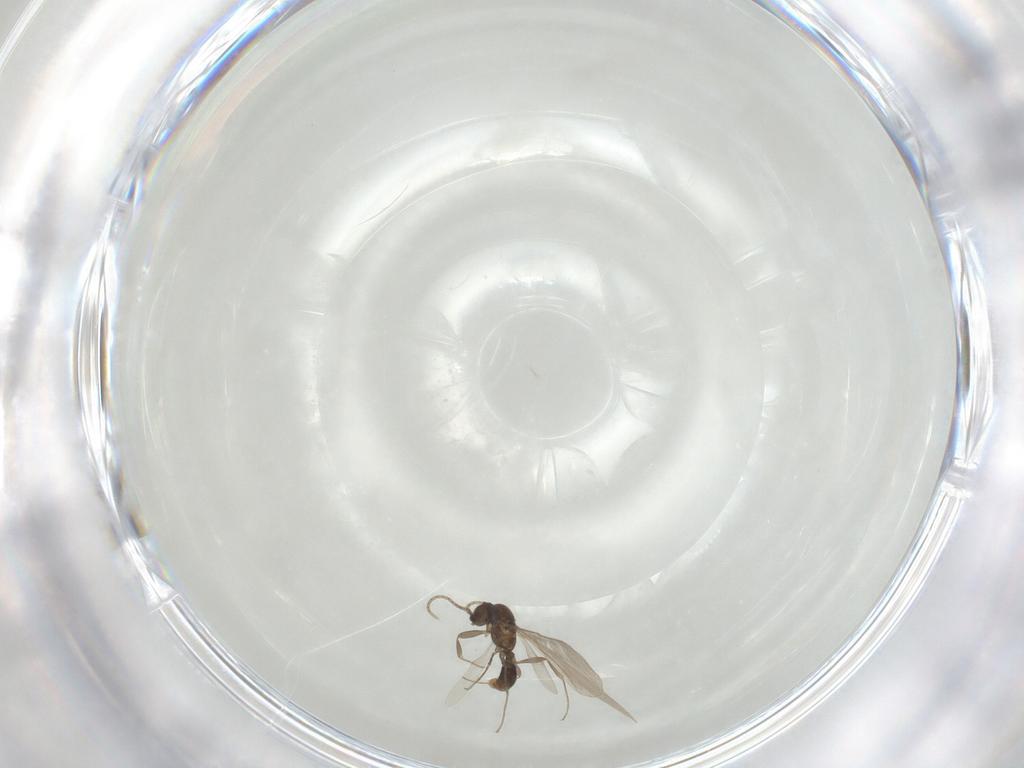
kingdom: Animalia
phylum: Arthropoda
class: Insecta
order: Hymenoptera
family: Formicidae
